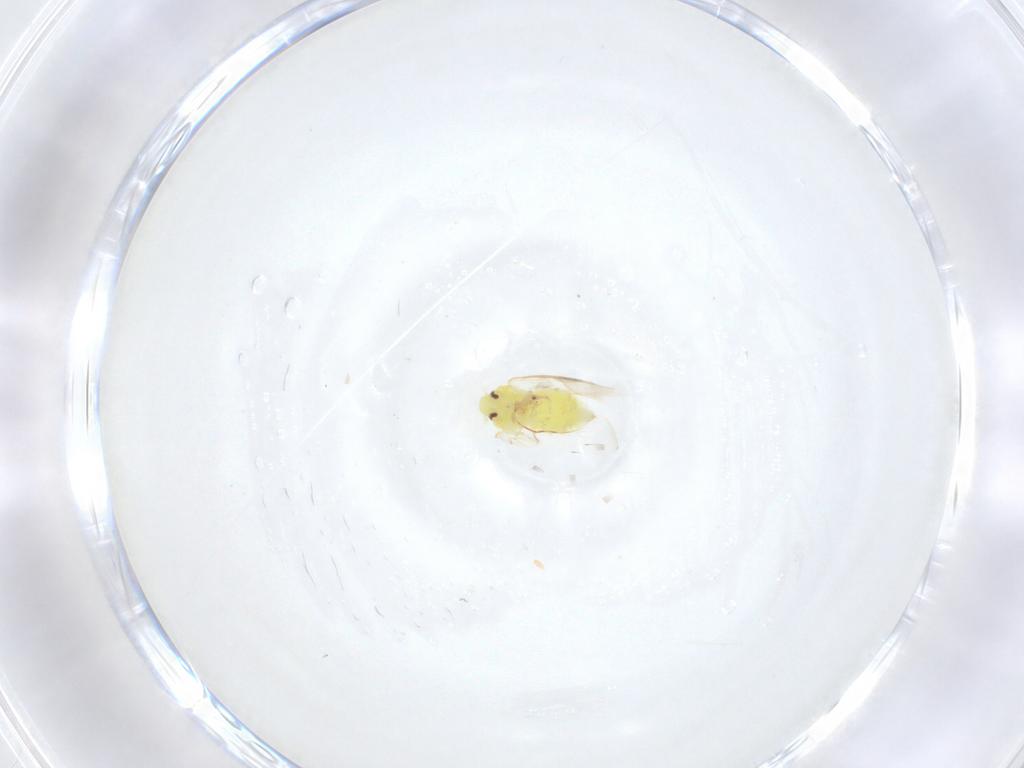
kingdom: Animalia
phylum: Arthropoda
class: Insecta
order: Hemiptera
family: Aleyrodidae
